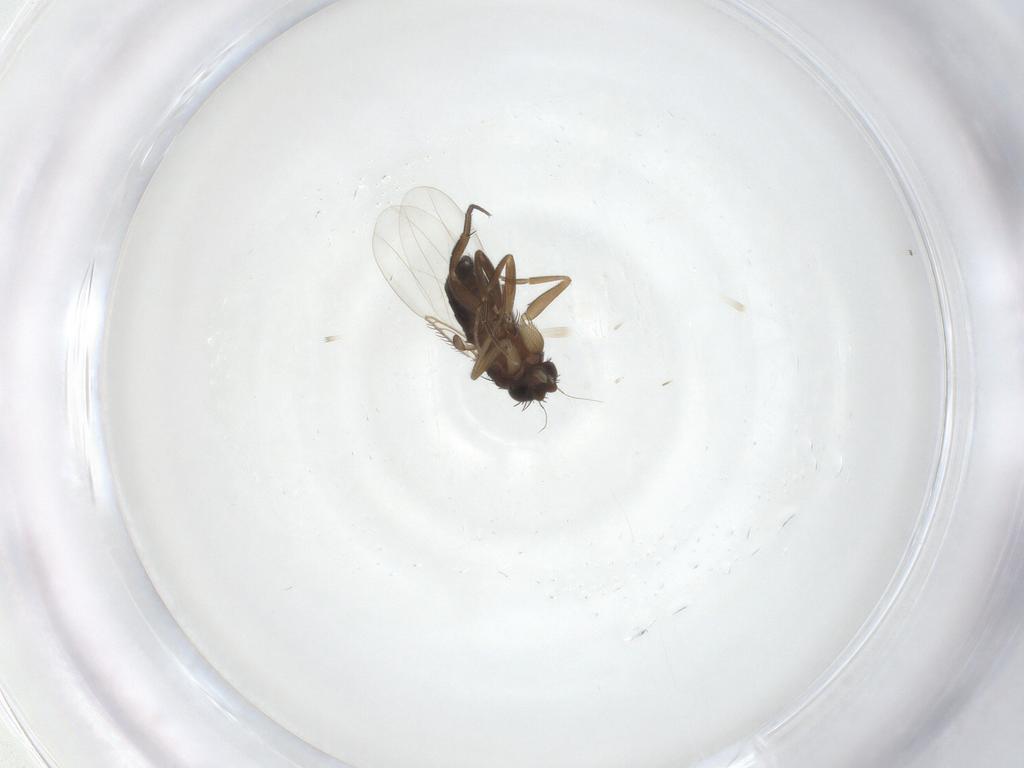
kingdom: Animalia
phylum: Arthropoda
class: Insecta
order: Diptera
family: Phoridae
